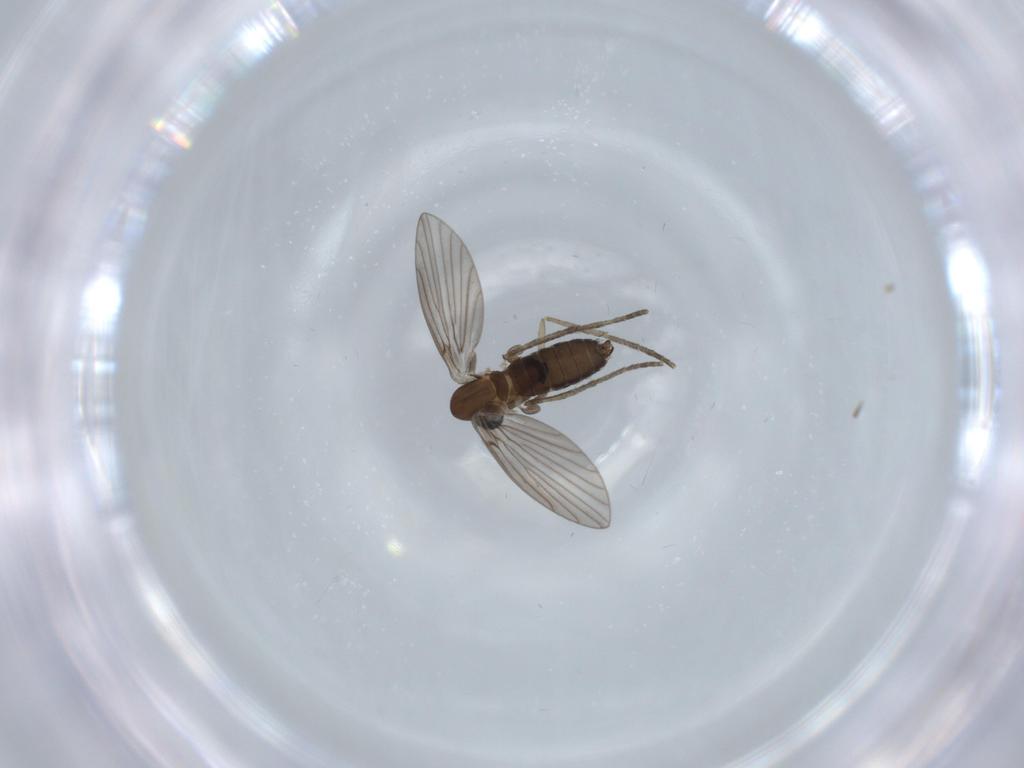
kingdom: Animalia
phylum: Arthropoda
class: Insecta
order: Diptera
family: Psychodidae
